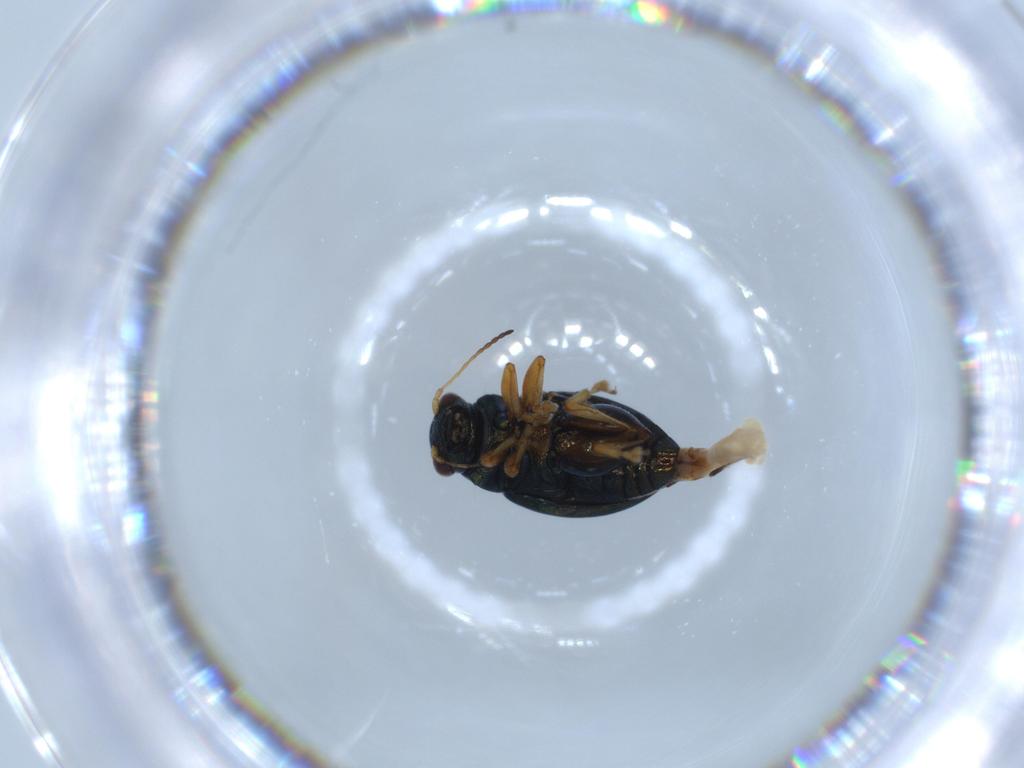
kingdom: Animalia
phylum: Arthropoda
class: Insecta
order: Coleoptera
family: Chrysomelidae
